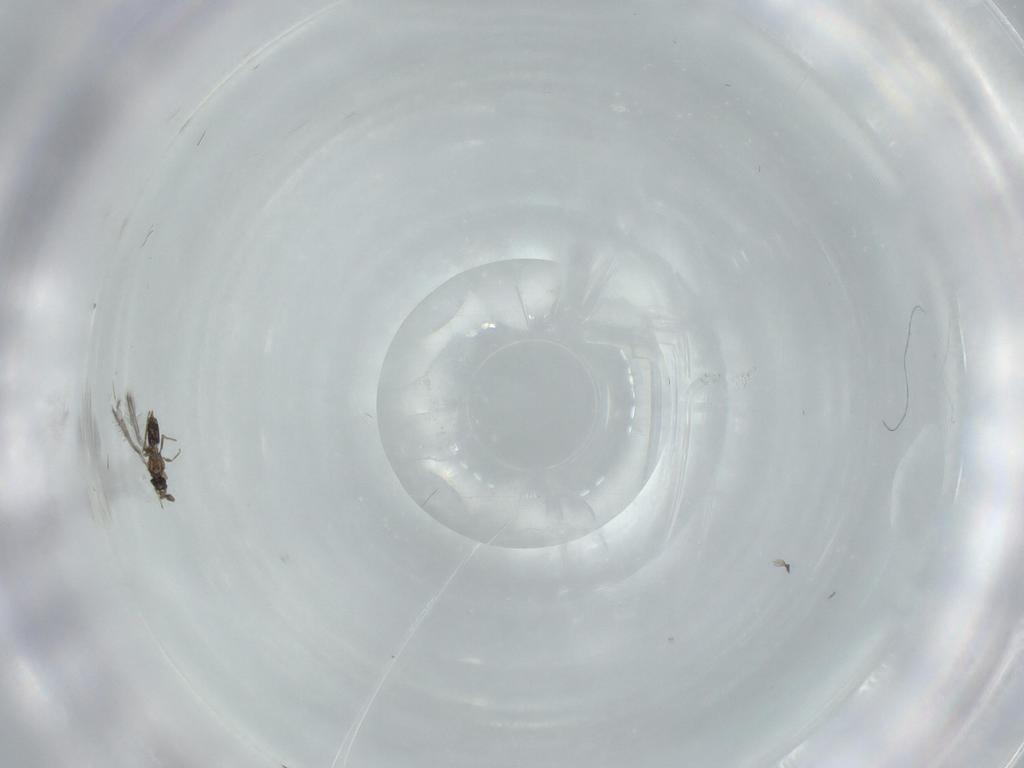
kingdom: Animalia
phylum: Arthropoda
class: Insecta
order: Hymenoptera
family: Mymaridae
